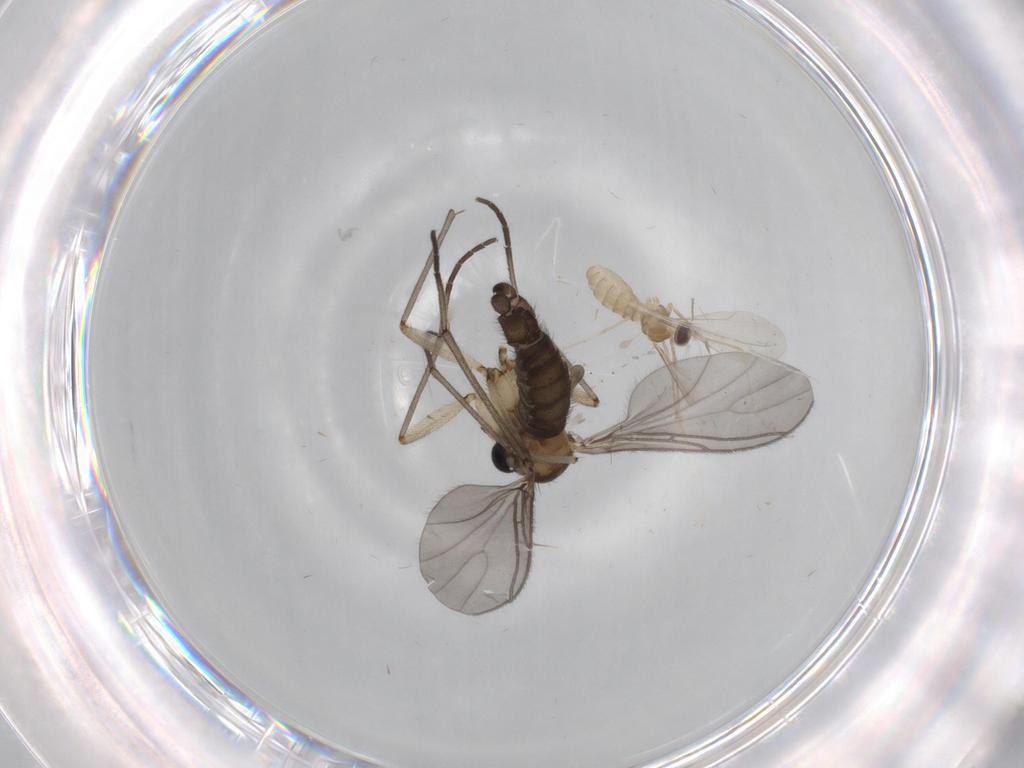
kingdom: Animalia
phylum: Arthropoda
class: Insecta
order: Diptera
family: Sciaridae
